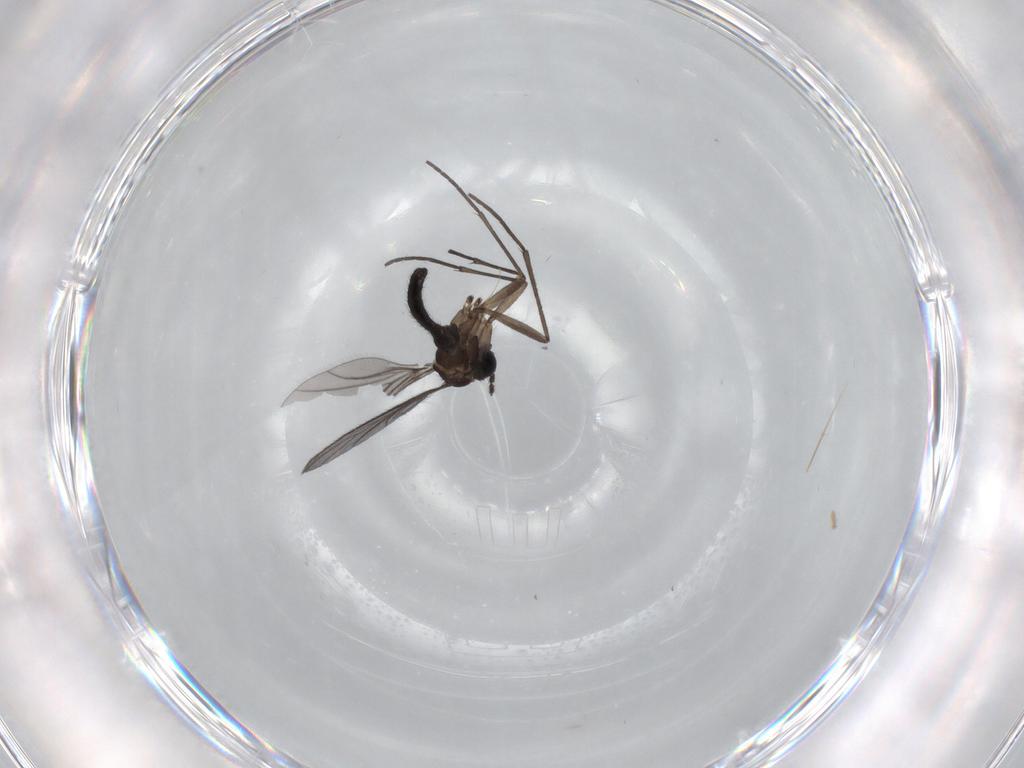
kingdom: Animalia
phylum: Arthropoda
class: Insecta
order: Diptera
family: Sciaridae
